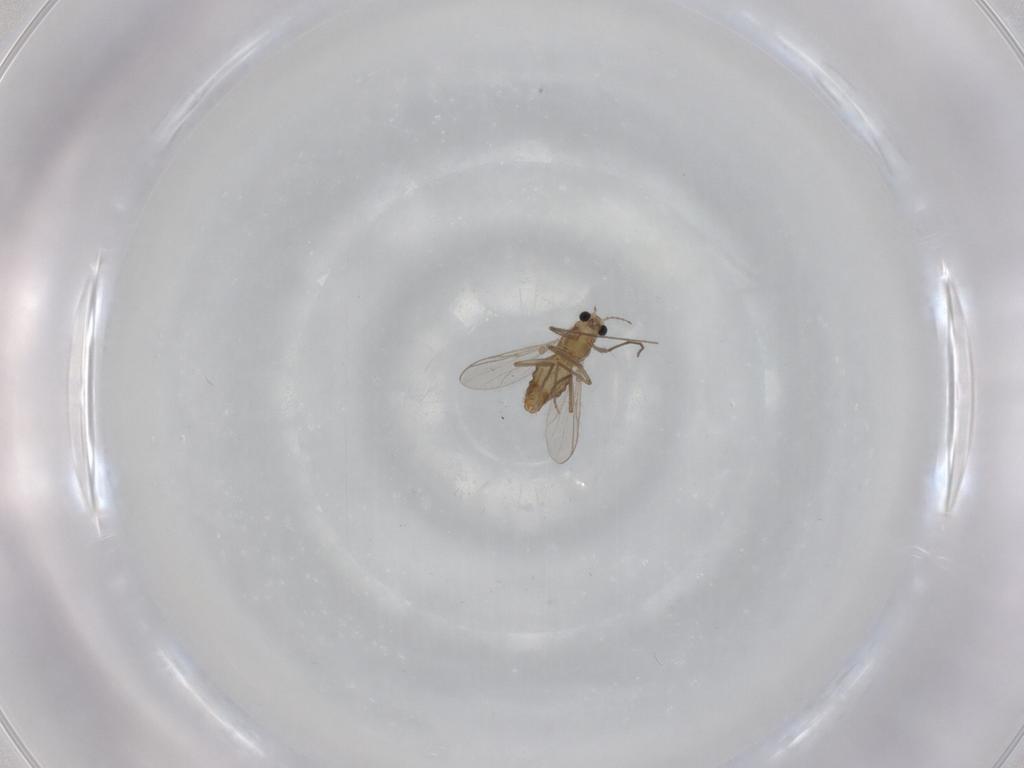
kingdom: Animalia
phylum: Arthropoda
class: Insecta
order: Diptera
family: Chironomidae
